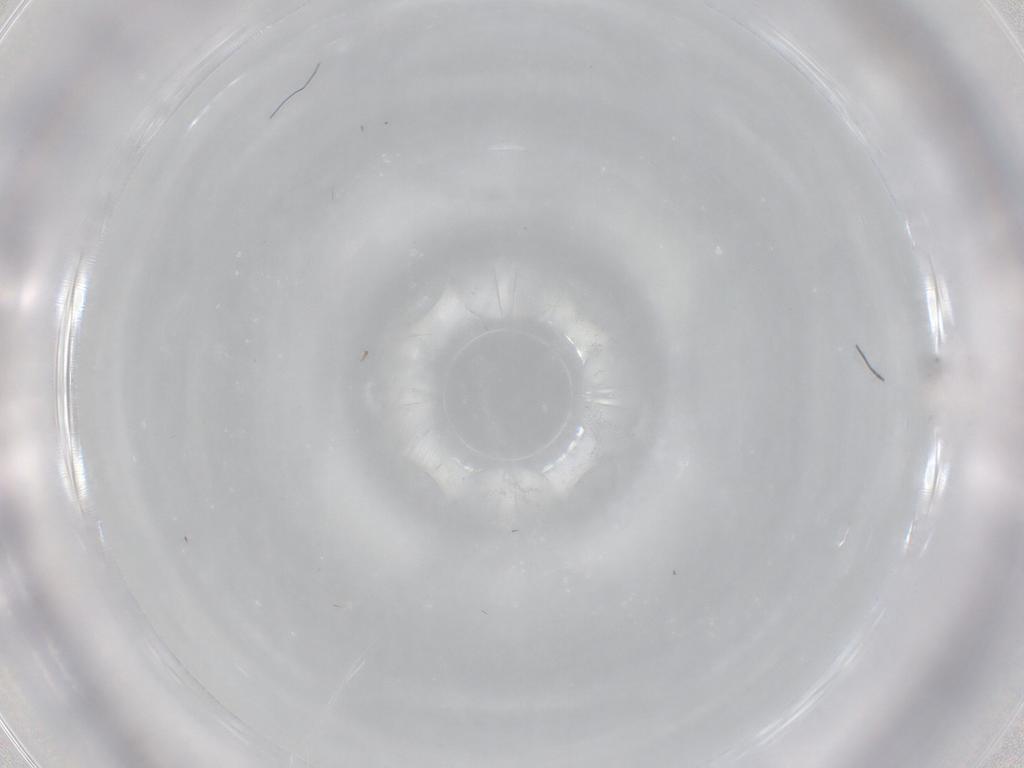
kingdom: Animalia
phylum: Arthropoda
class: Collembola
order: Entomobryomorpha
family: Entomobryidae
